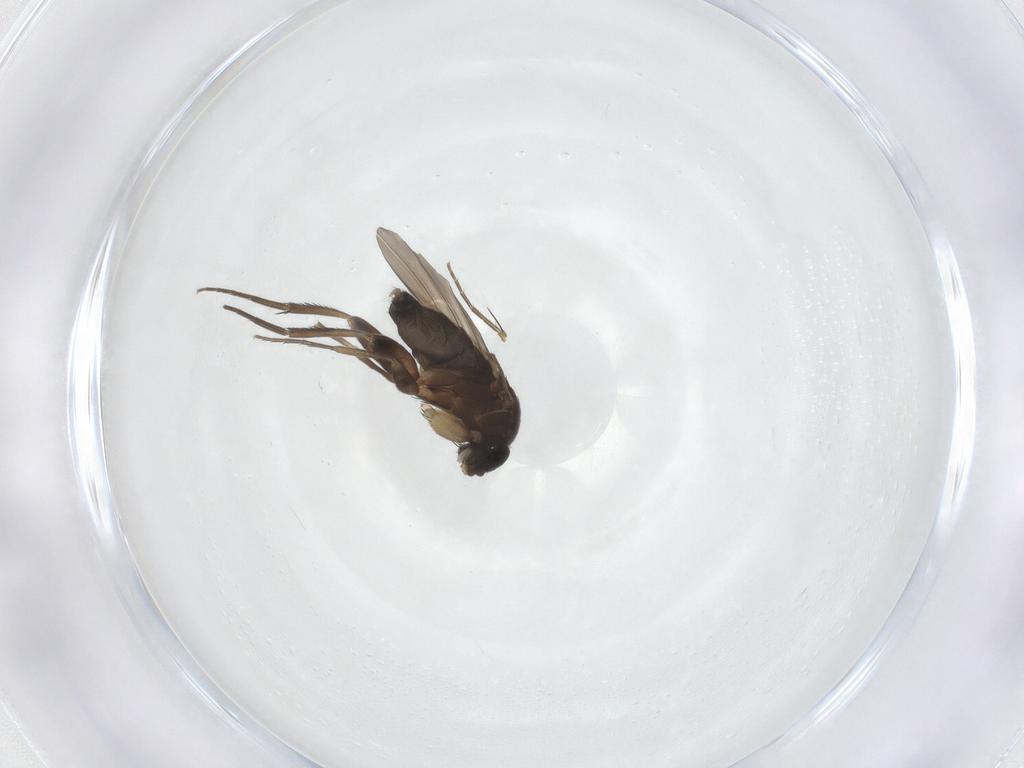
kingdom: Animalia
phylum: Arthropoda
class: Insecta
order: Diptera
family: Phoridae
